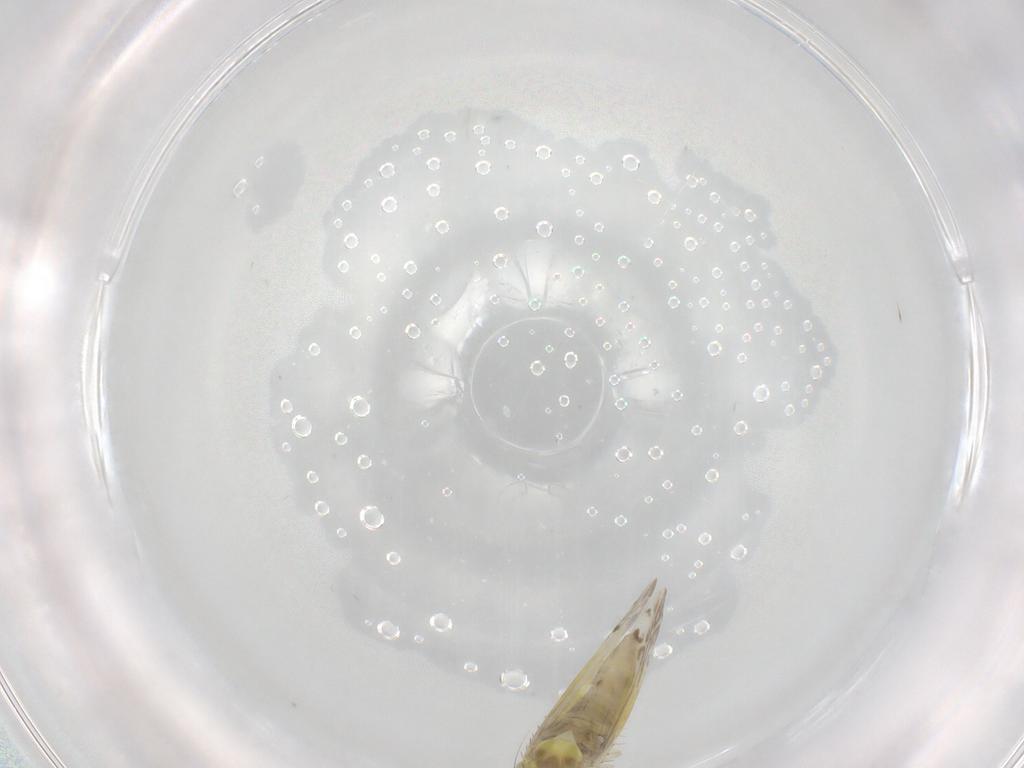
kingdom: Animalia
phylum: Arthropoda
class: Insecta
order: Hemiptera
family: Cicadellidae
